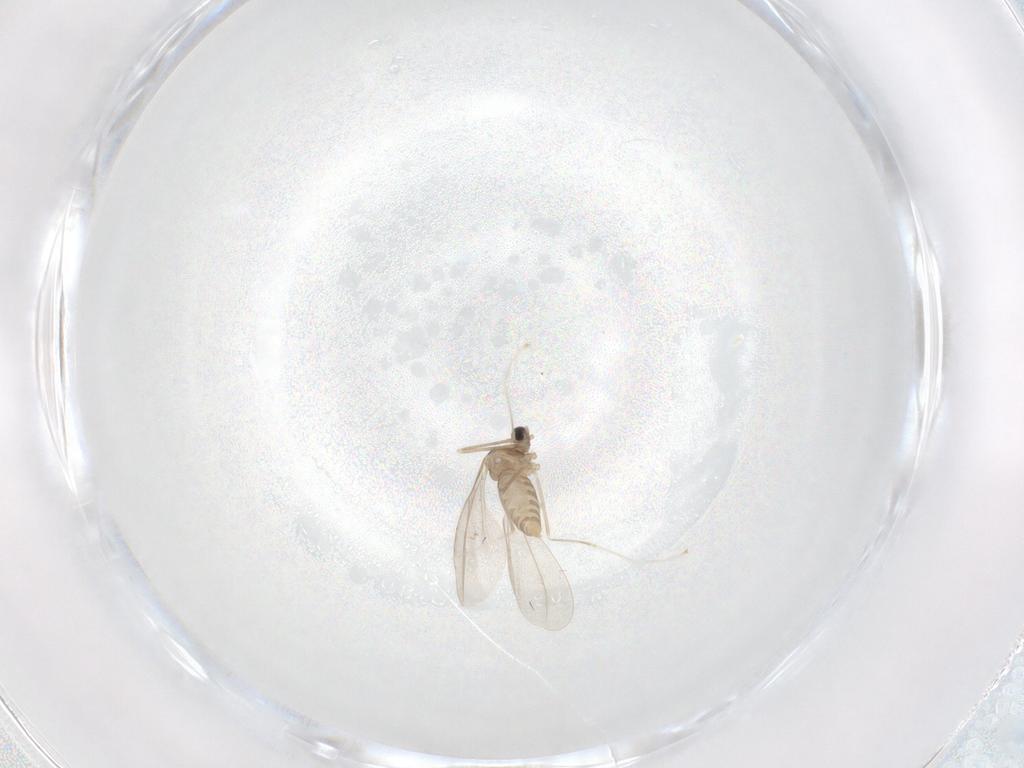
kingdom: Animalia
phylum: Arthropoda
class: Insecta
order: Diptera
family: Cecidomyiidae
